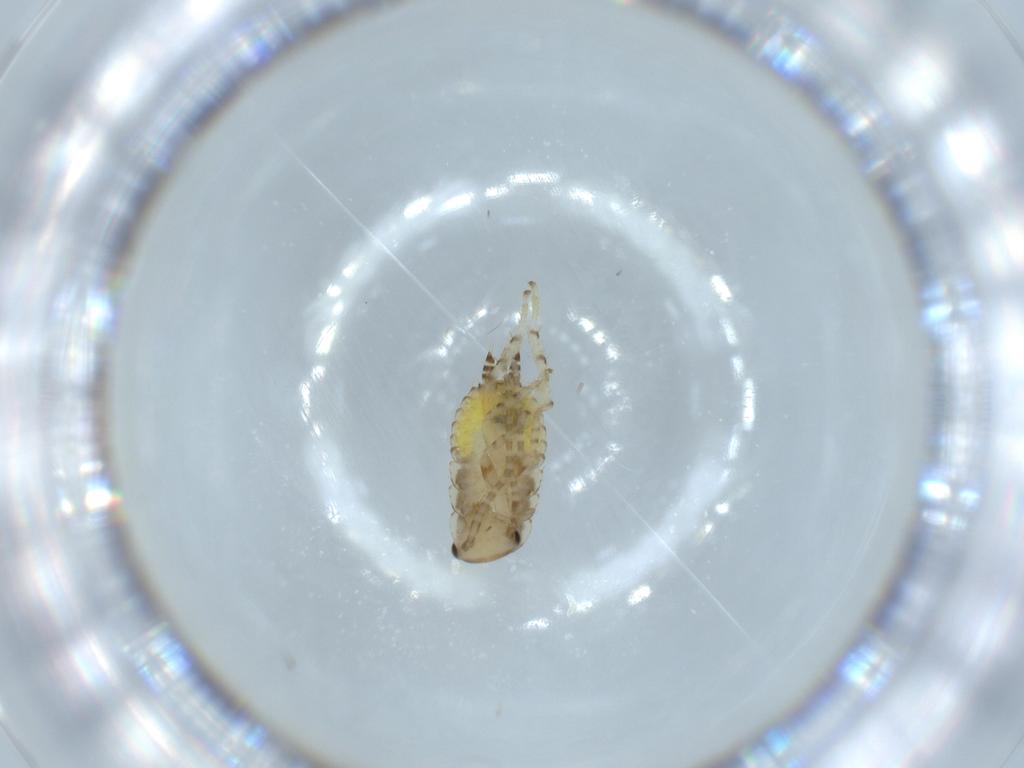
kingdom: Animalia
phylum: Arthropoda
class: Insecta
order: Blattodea
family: Ectobiidae
